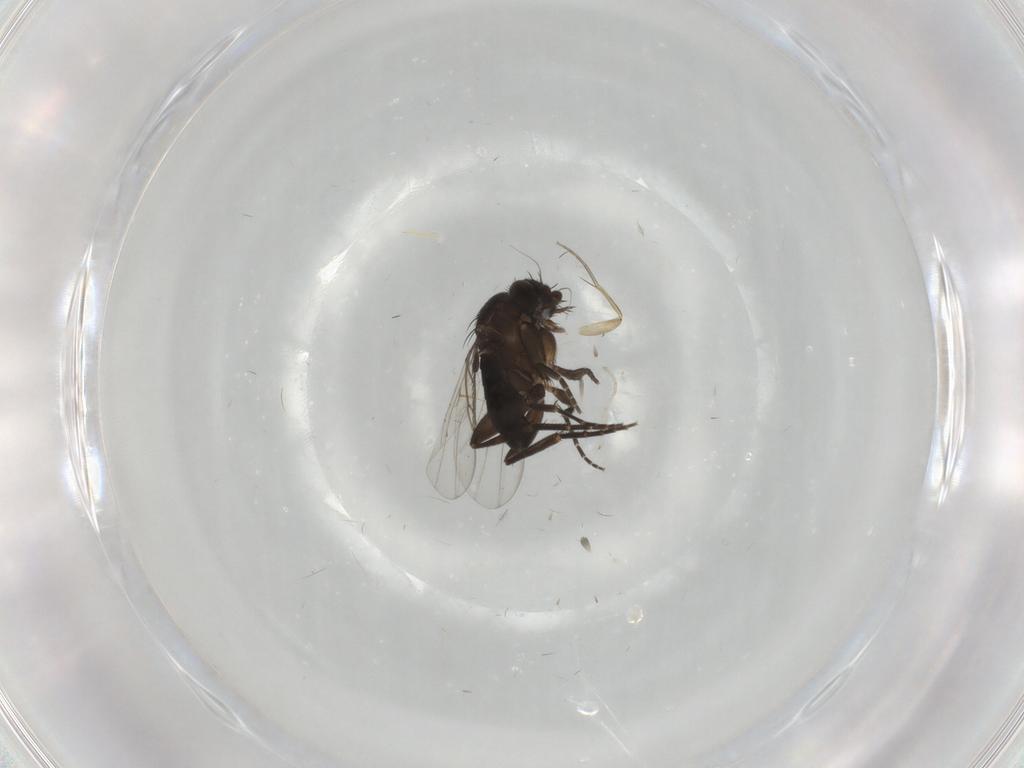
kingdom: Animalia
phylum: Arthropoda
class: Insecta
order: Diptera
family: Phoridae
